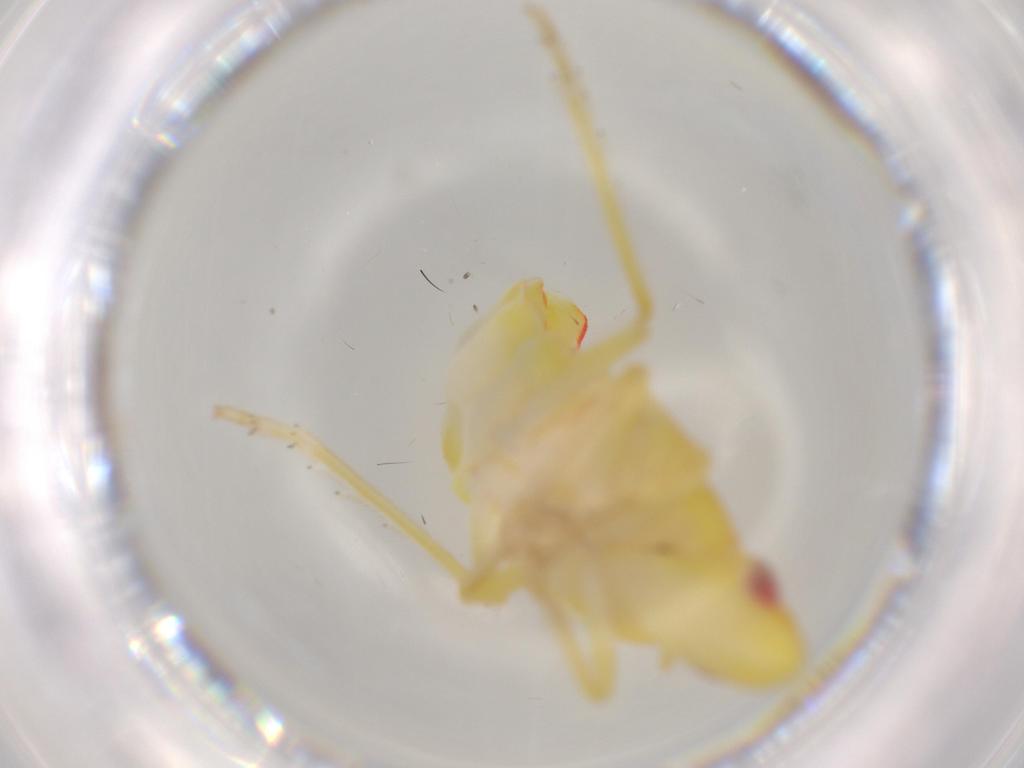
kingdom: Animalia
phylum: Arthropoda
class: Insecta
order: Hemiptera
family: Tropiduchidae
